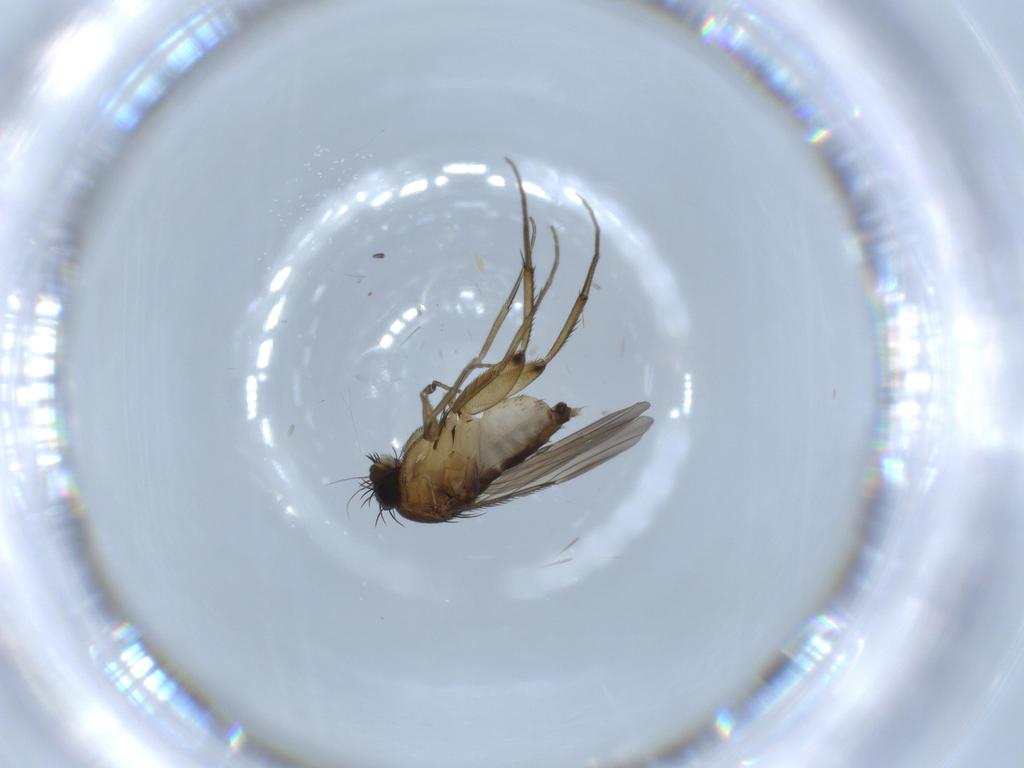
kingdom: Animalia
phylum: Arthropoda
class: Insecta
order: Diptera
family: Phoridae
